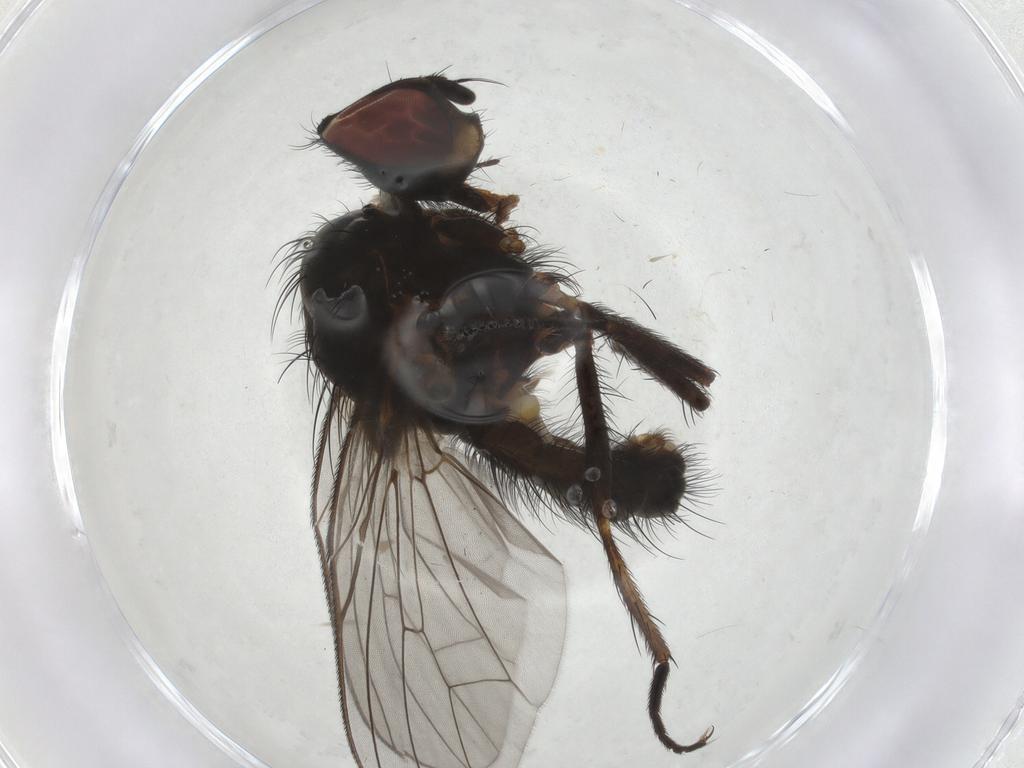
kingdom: Animalia
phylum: Arthropoda
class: Insecta
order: Diptera
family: Anthomyiidae
